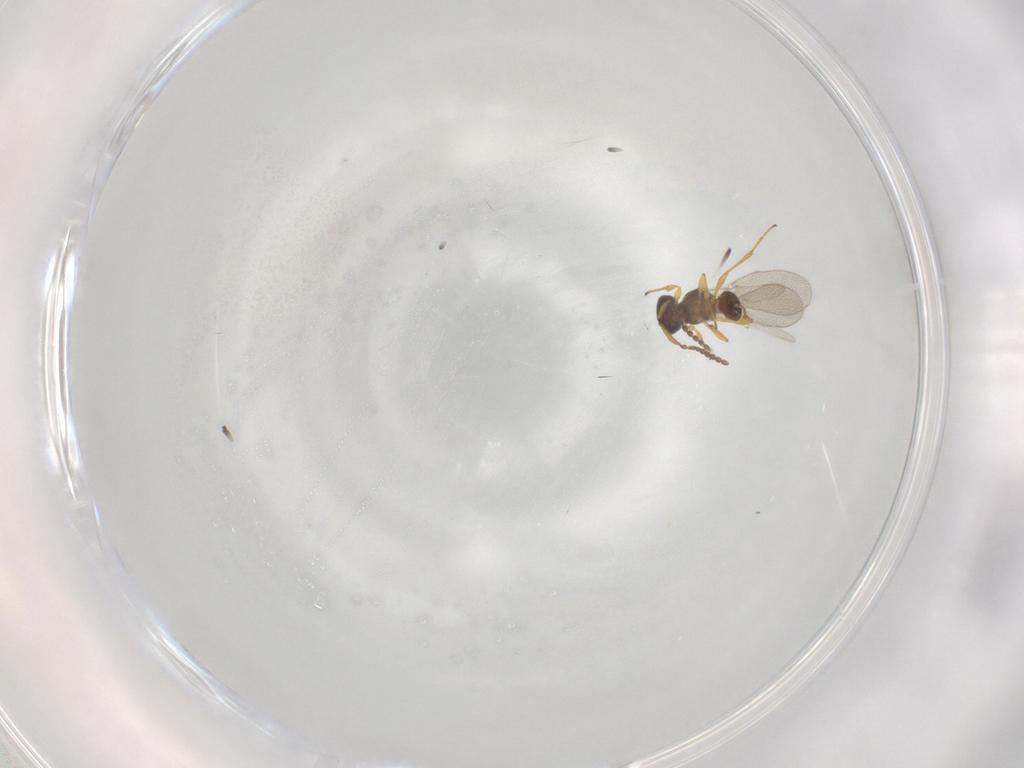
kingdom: Animalia
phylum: Arthropoda
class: Insecta
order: Diptera
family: Mythicomyiidae
